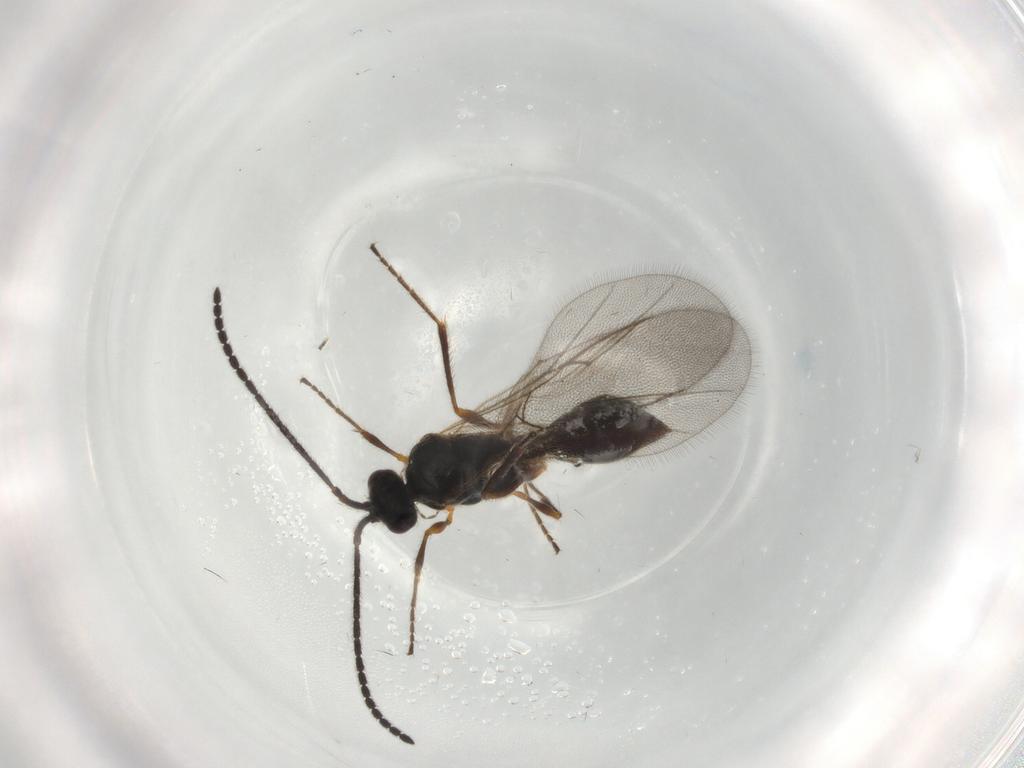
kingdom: Animalia
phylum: Arthropoda
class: Insecta
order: Hymenoptera
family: Diapriidae
